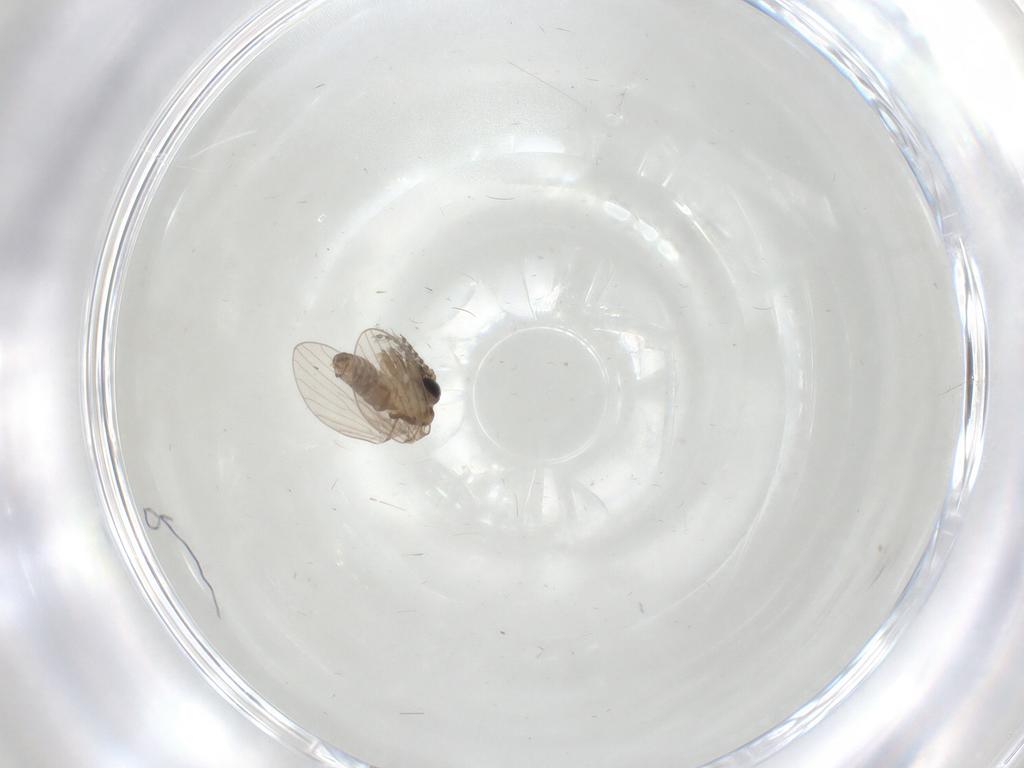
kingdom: Animalia
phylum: Arthropoda
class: Insecta
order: Diptera
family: Psychodidae
